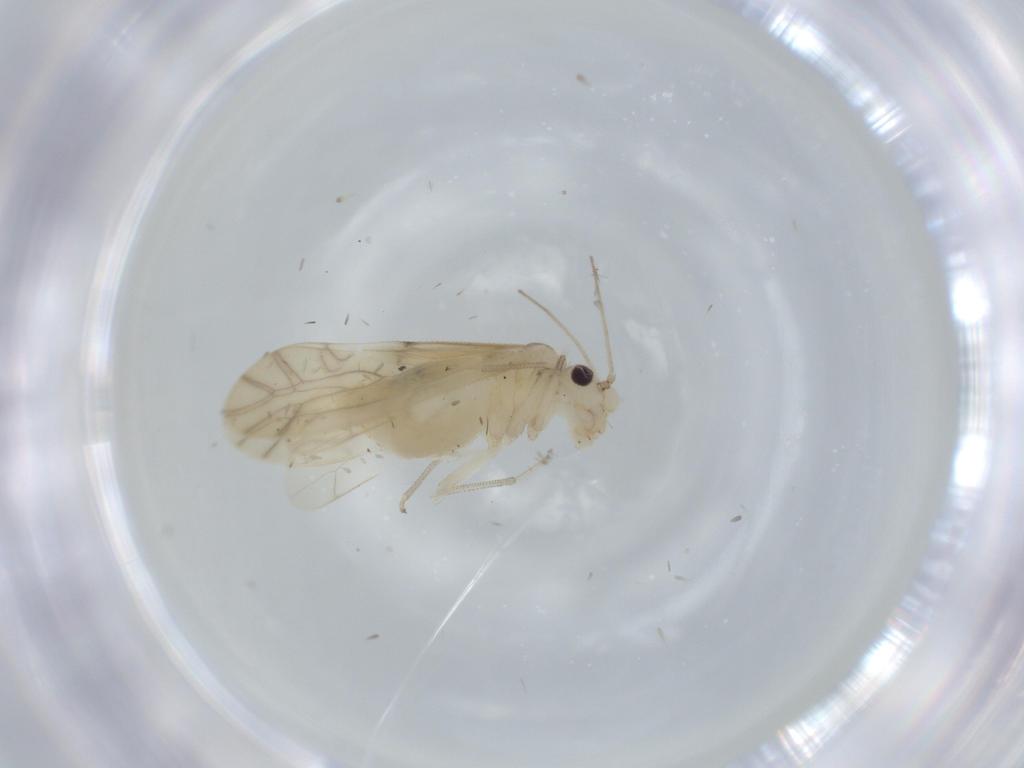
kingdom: Animalia
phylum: Arthropoda
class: Insecta
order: Psocodea
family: Caeciliusidae
